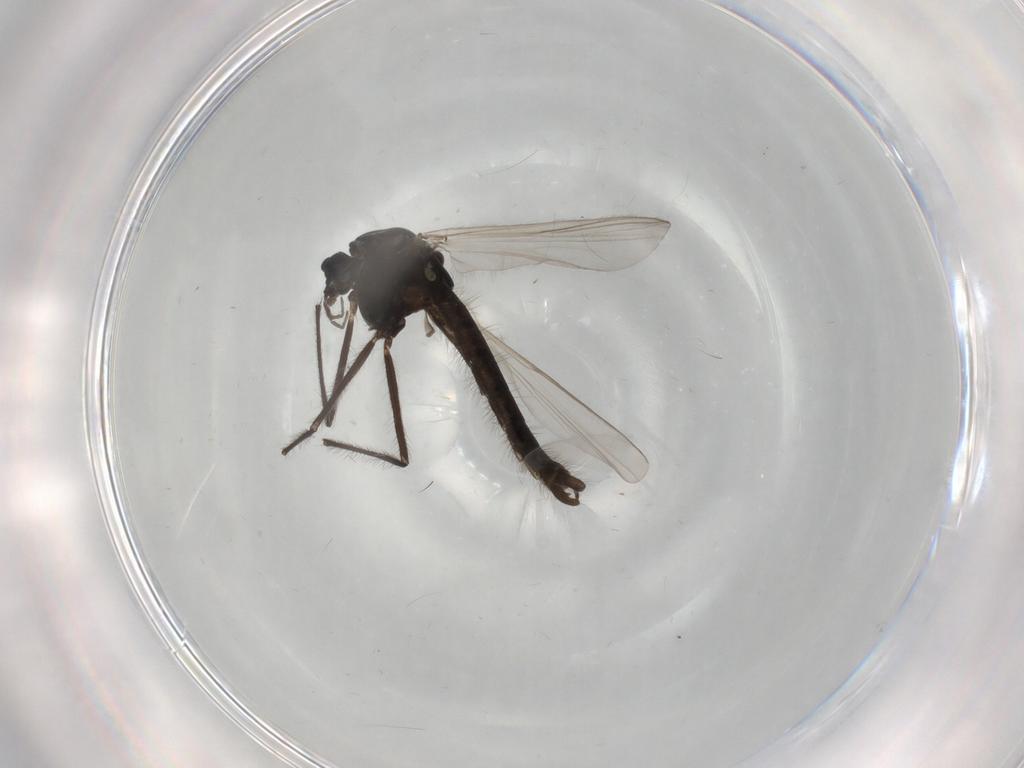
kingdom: Animalia
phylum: Arthropoda
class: Insecta
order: Diptera
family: Chironomidae
